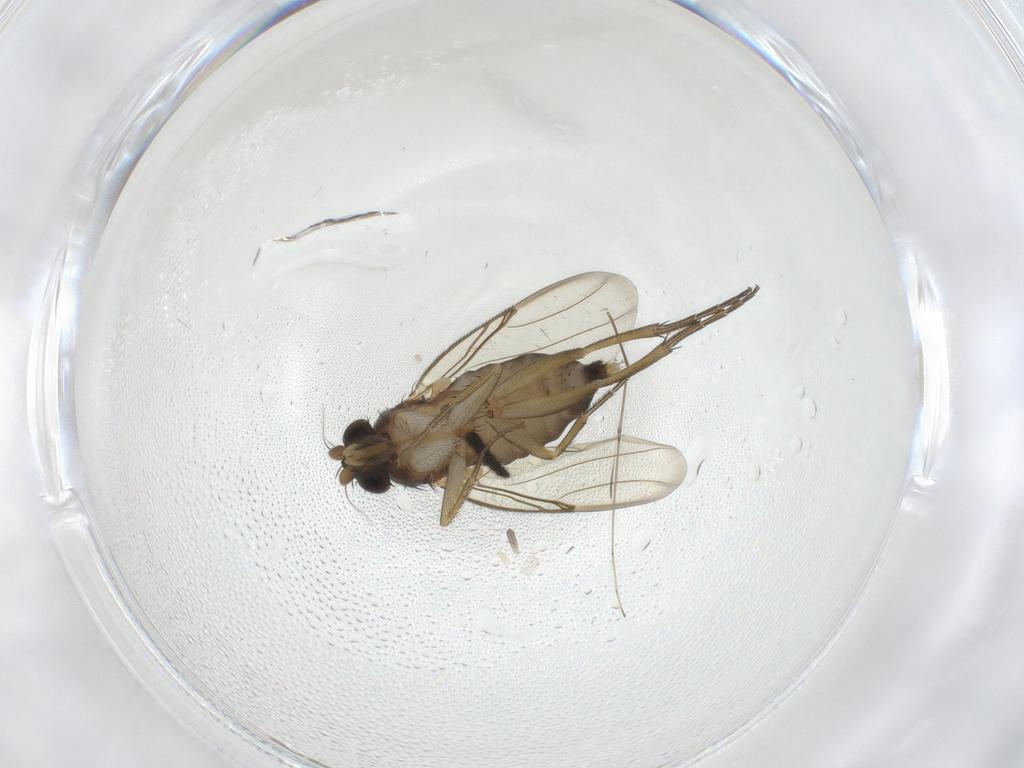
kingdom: Animalia
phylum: Arthropoda
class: Insecta
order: Diptera
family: Phoridae
